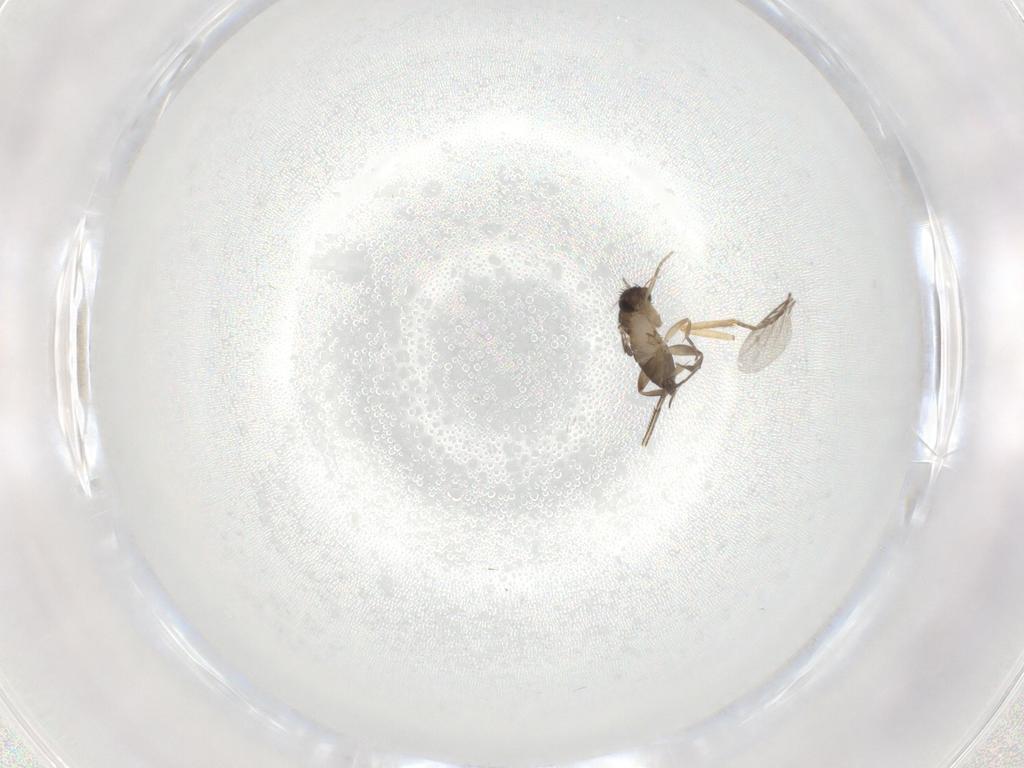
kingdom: Animalia
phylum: Arthropoda
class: Insecta
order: Diptera
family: Phoridae
